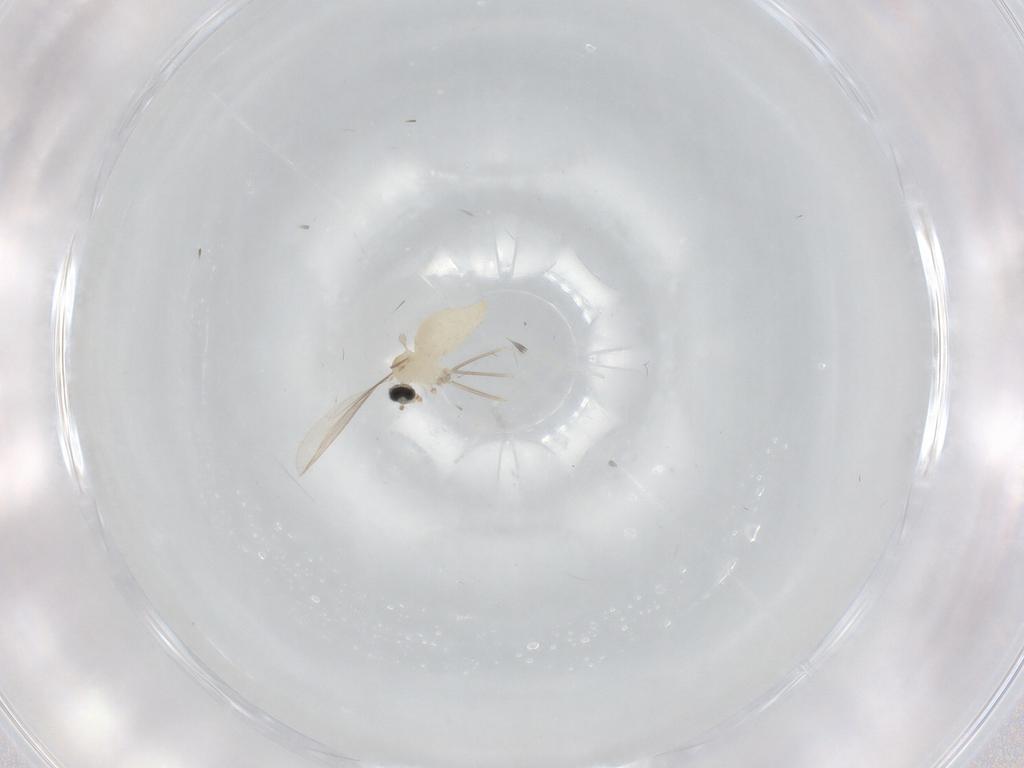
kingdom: Animalia
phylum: Arthropoda
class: Insecta
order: Diptera
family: Cecidomyiidae
